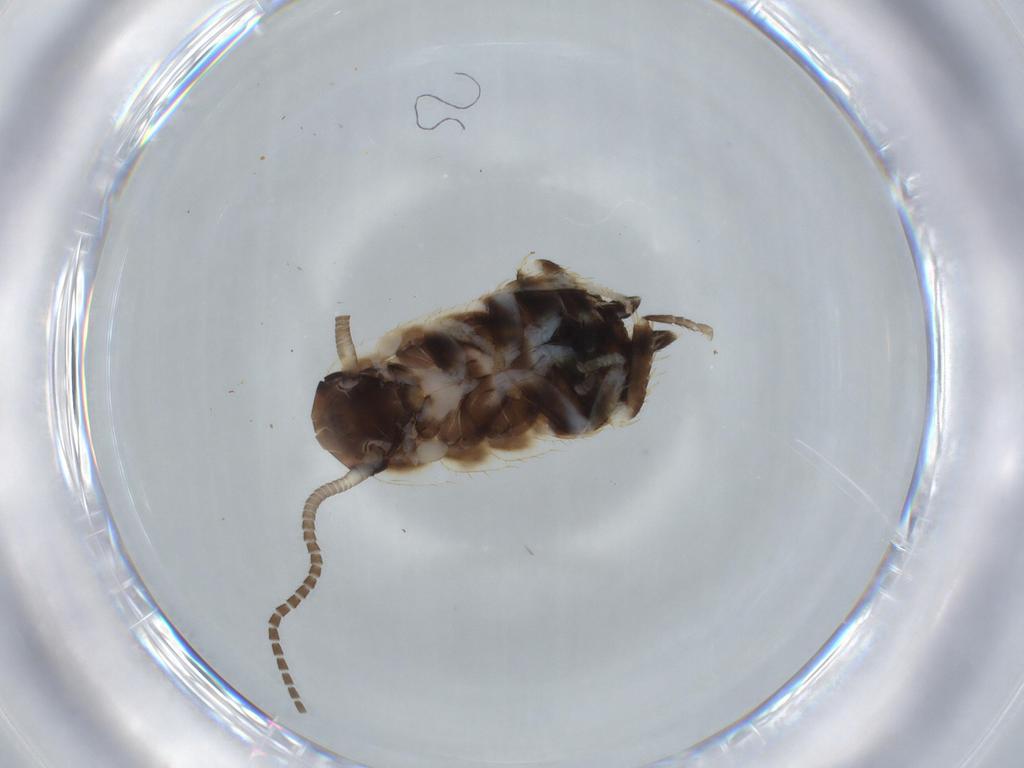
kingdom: Animalia
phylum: Arthropoda
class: Insecta
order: Blattodea
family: Ectobiidae
